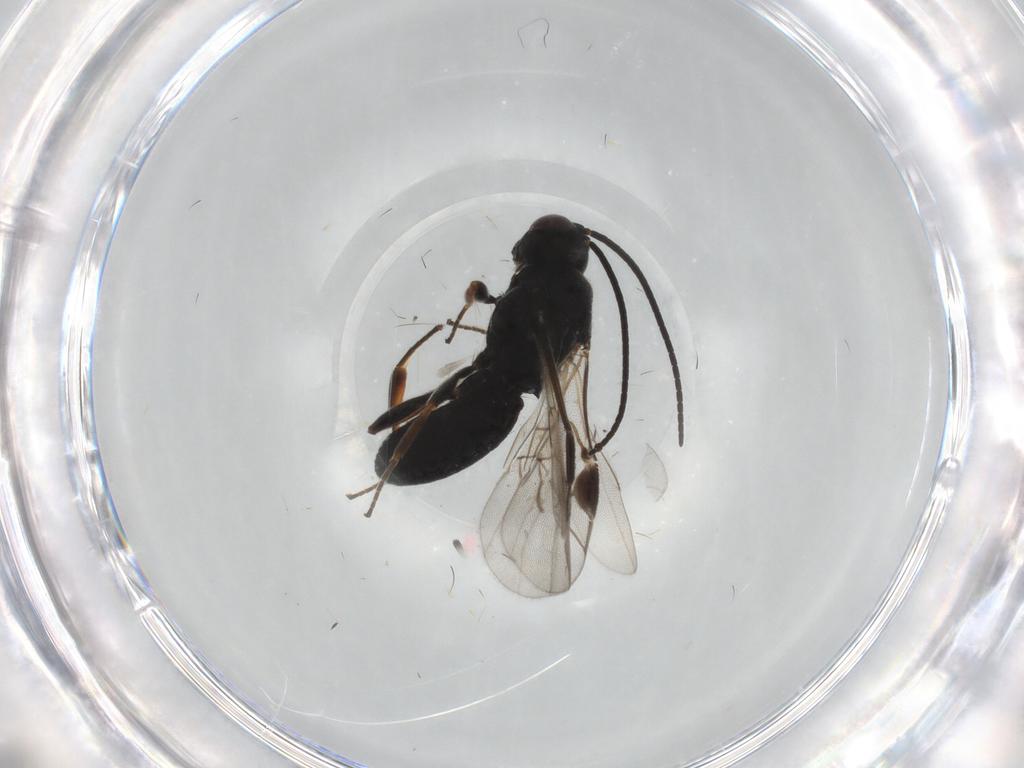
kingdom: Animalia
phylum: Arthropoda
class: Insecta
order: Hymenoptera
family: Braconidae
